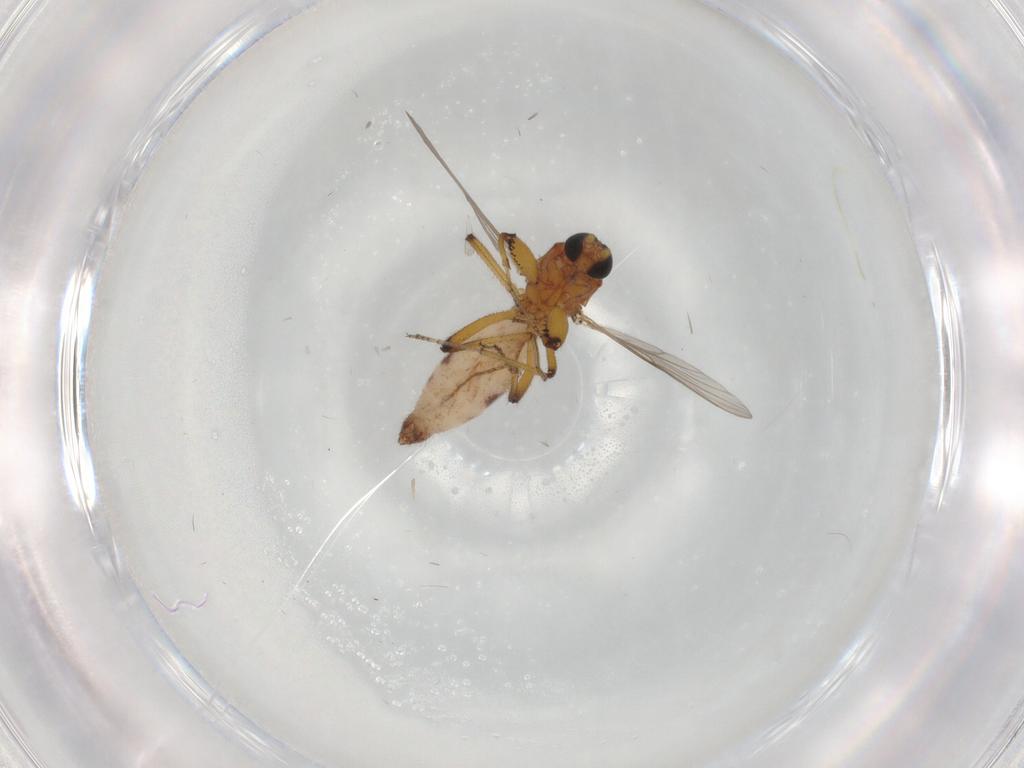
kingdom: Animalia
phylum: Arthropoda
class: Insecta
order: Diptera
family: Ceratopogonidae
